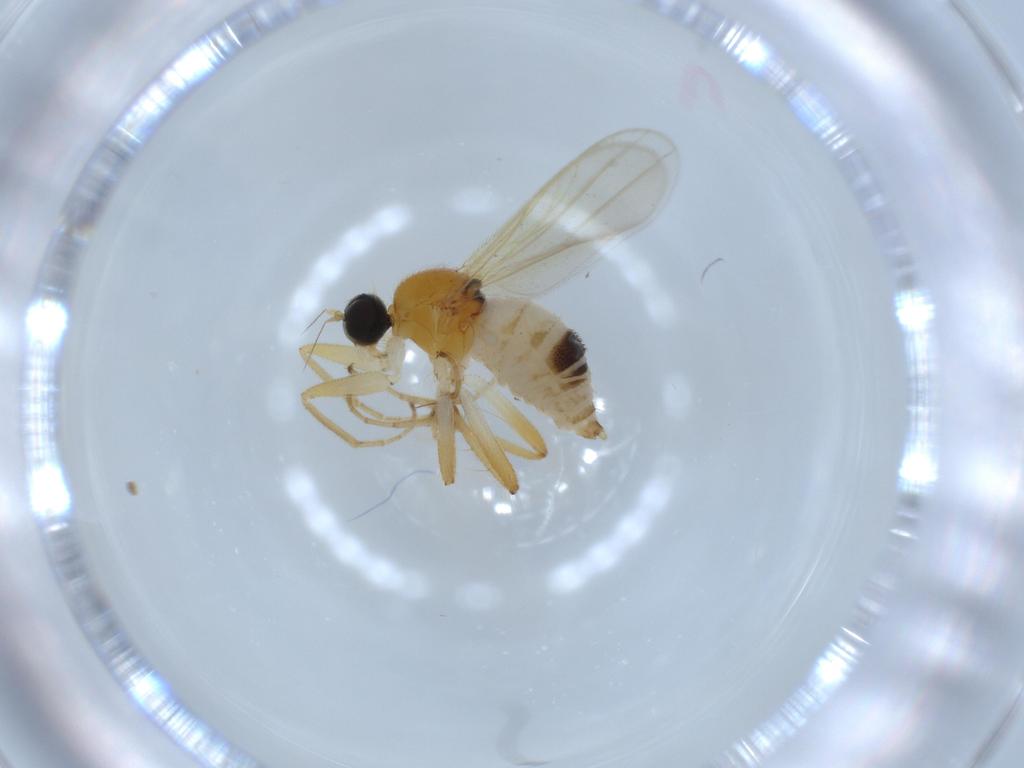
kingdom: Animalia
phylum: Arthropoda
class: Insecta
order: Diptera
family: Hybotidae
